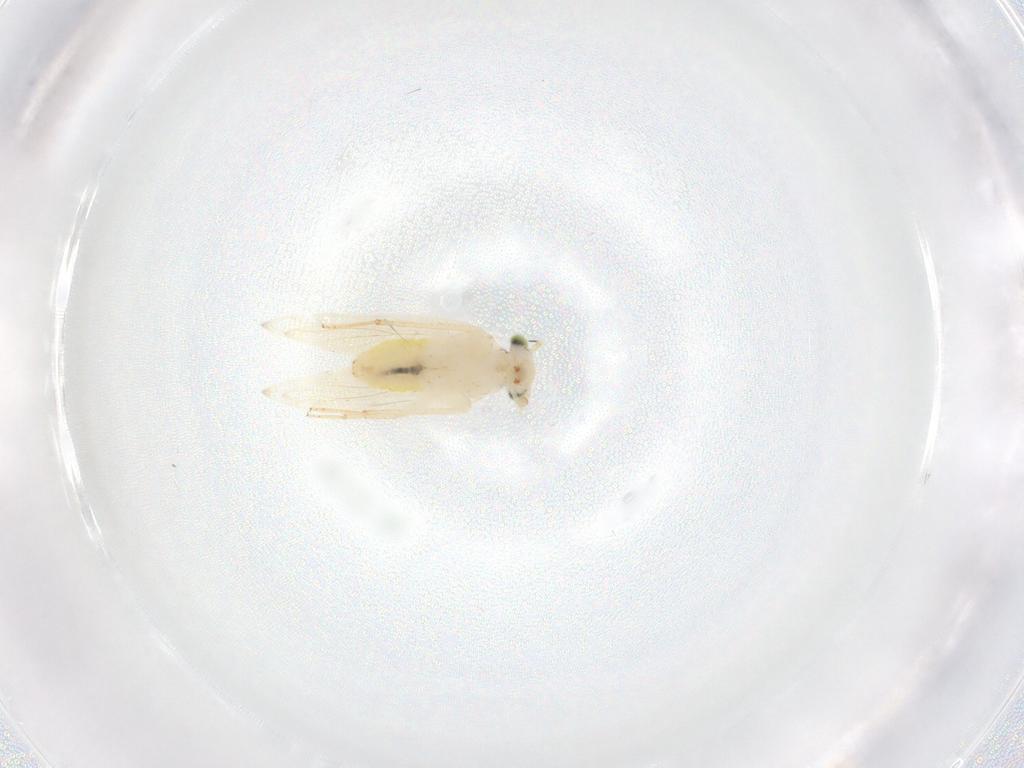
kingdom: Animalia
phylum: Arthropoda
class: Insecta
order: Psocodea
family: Lepidopsocidae
